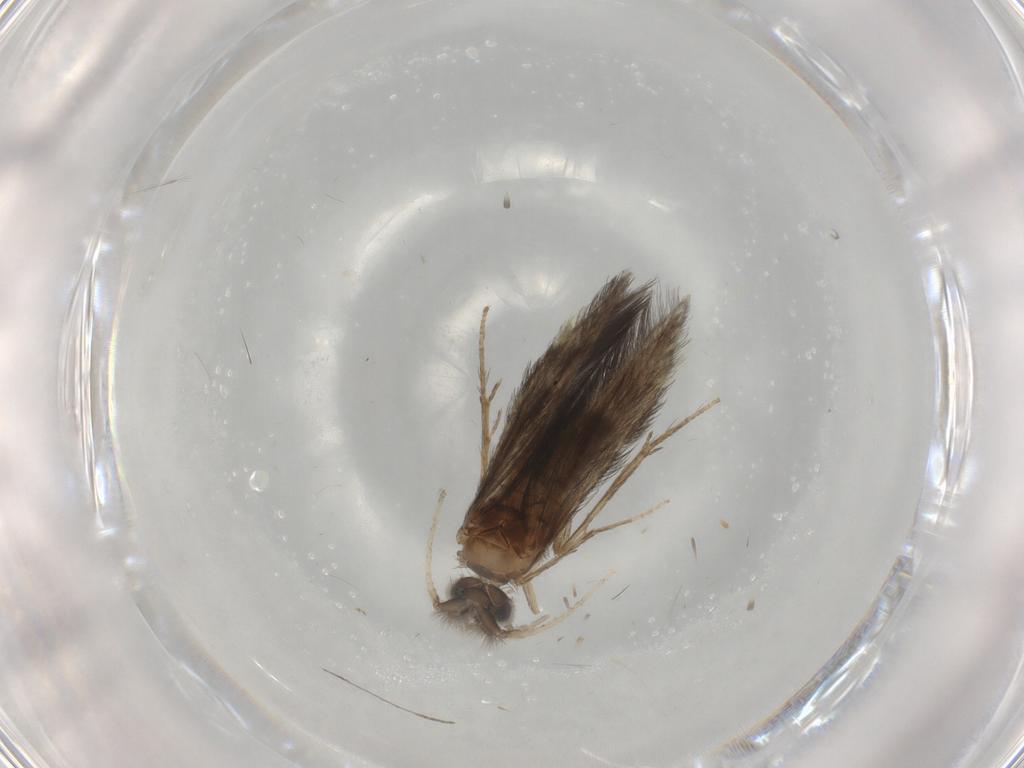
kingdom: Animalia
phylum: Arthropoda
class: Insecta
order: Trichoptera
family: Hydroptilidae
